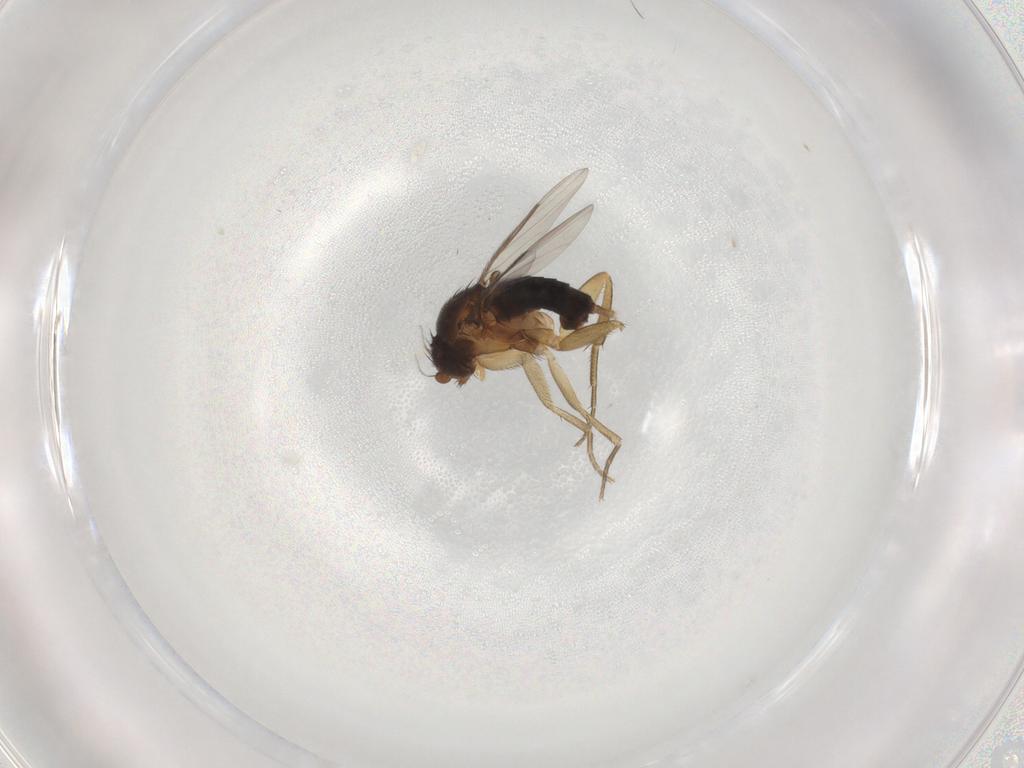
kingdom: Animalia
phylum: Arthropoda
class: Insecta
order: Diptera
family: Phoridae
